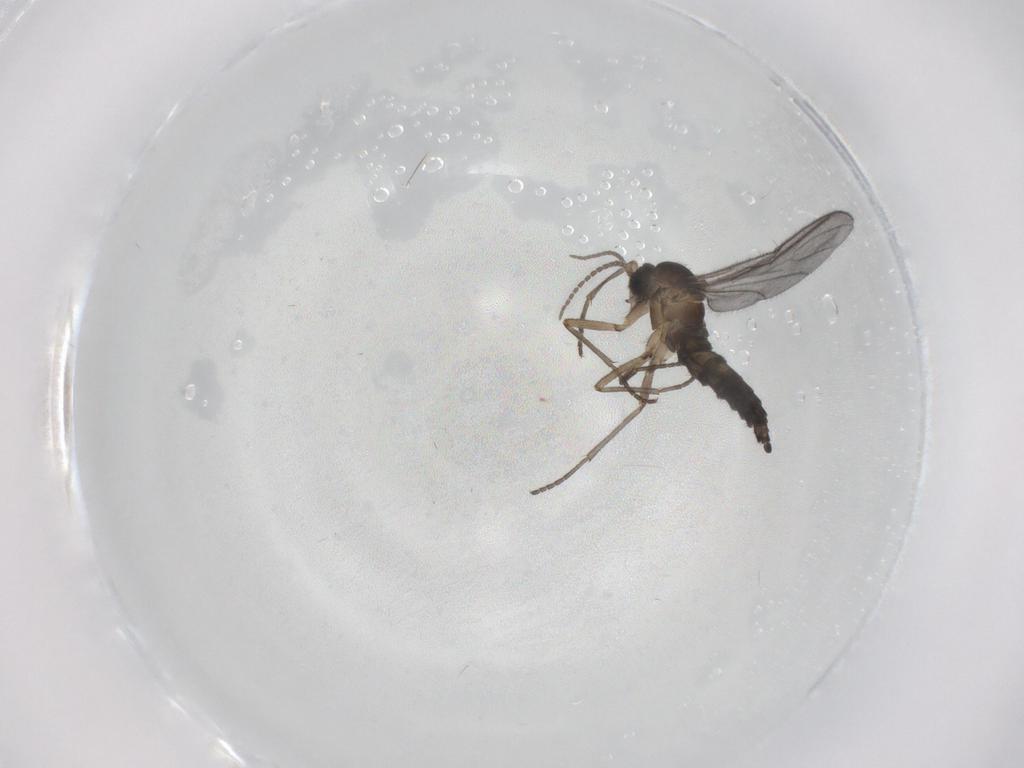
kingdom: Animalia
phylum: Arthropoda
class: Insecta
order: Diptera
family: Sciaridae
